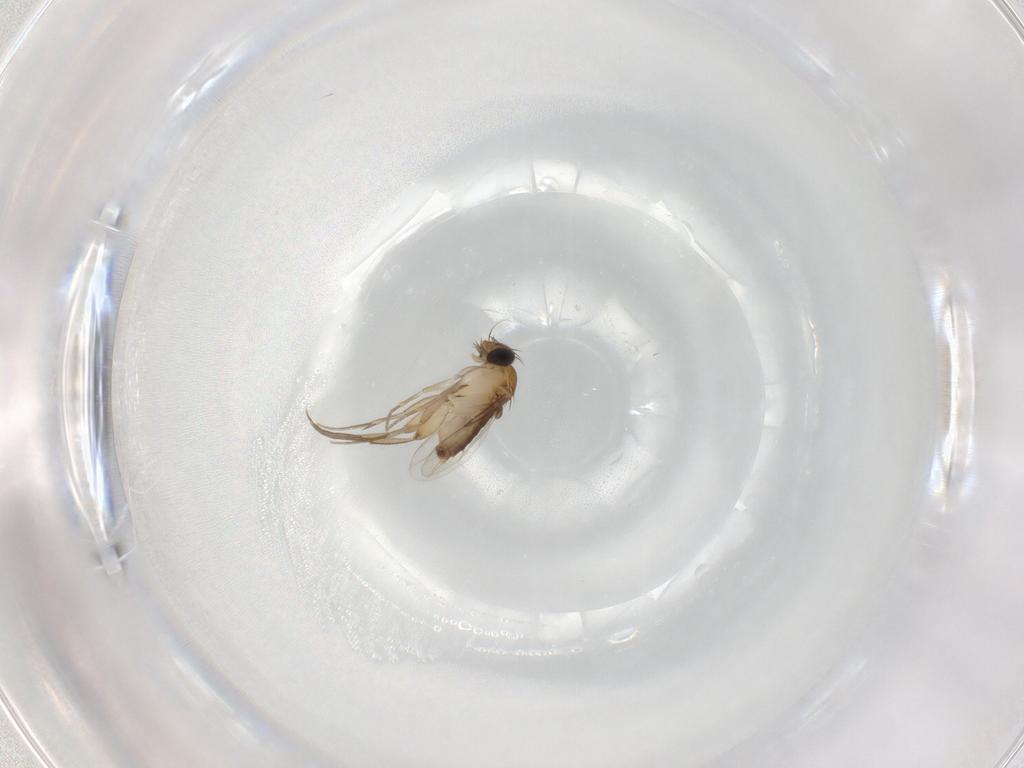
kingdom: Animalia
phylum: Arthropoda
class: Insecta
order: Diptera
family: Phoridae
